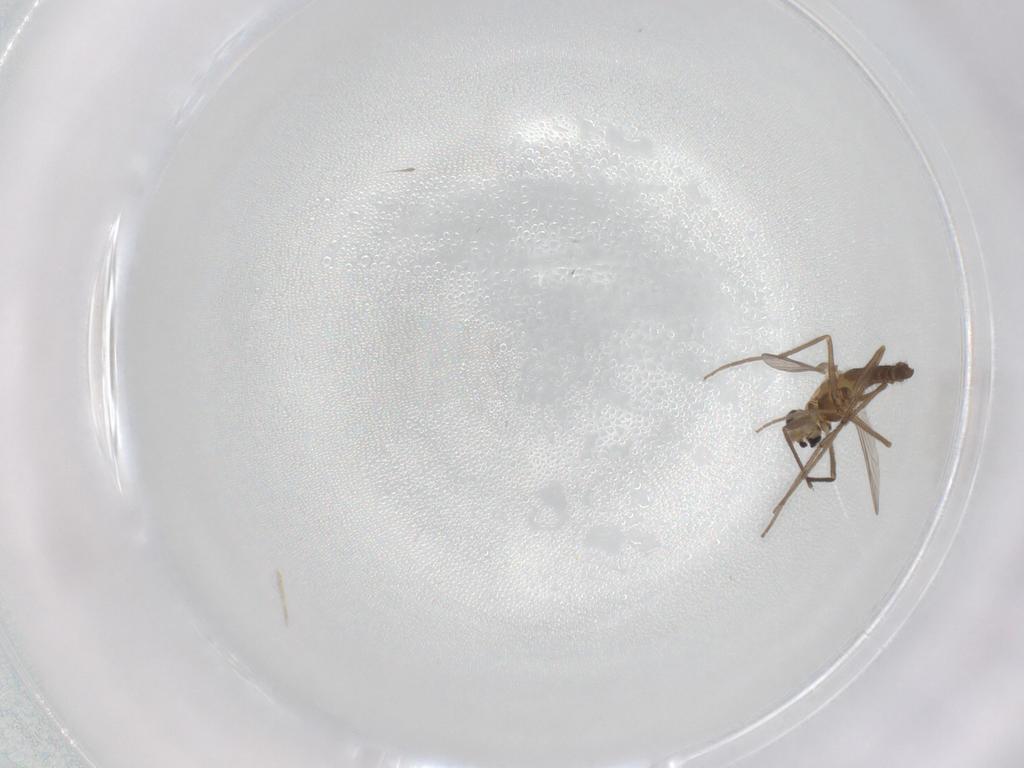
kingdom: Animalia
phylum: Arthropoda
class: Insecta
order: Diptera
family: Chironomidae
